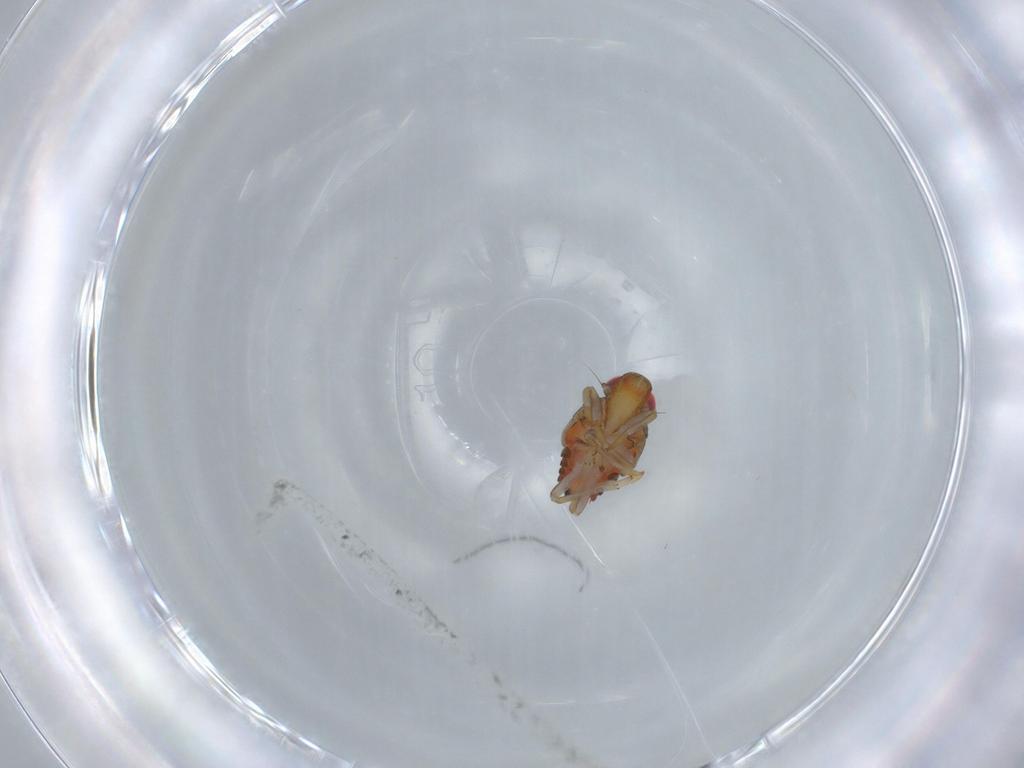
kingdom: Animalia
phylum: Arthropoda
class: Insecta
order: Hemiptera
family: Issidae
